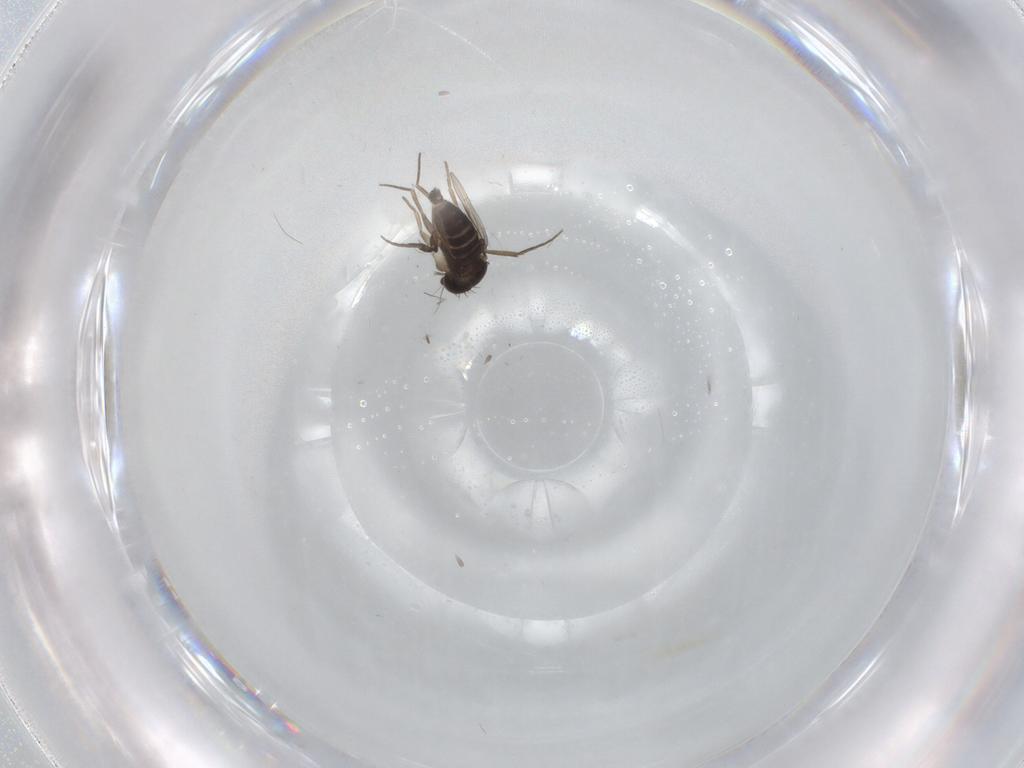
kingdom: Animalia
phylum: Arthropoda
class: Insecta
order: Diptera
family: Phoridae
